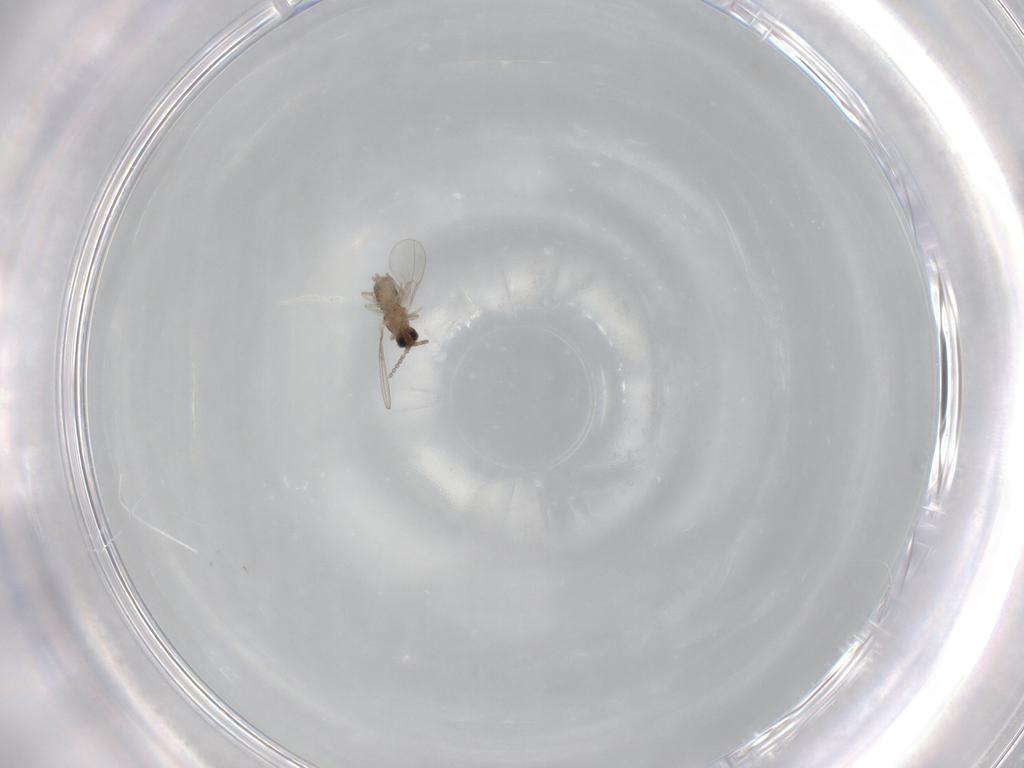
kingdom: Animalia
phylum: Arthropoda
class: Insecta
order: Diptera
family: Cecidomyiidae
